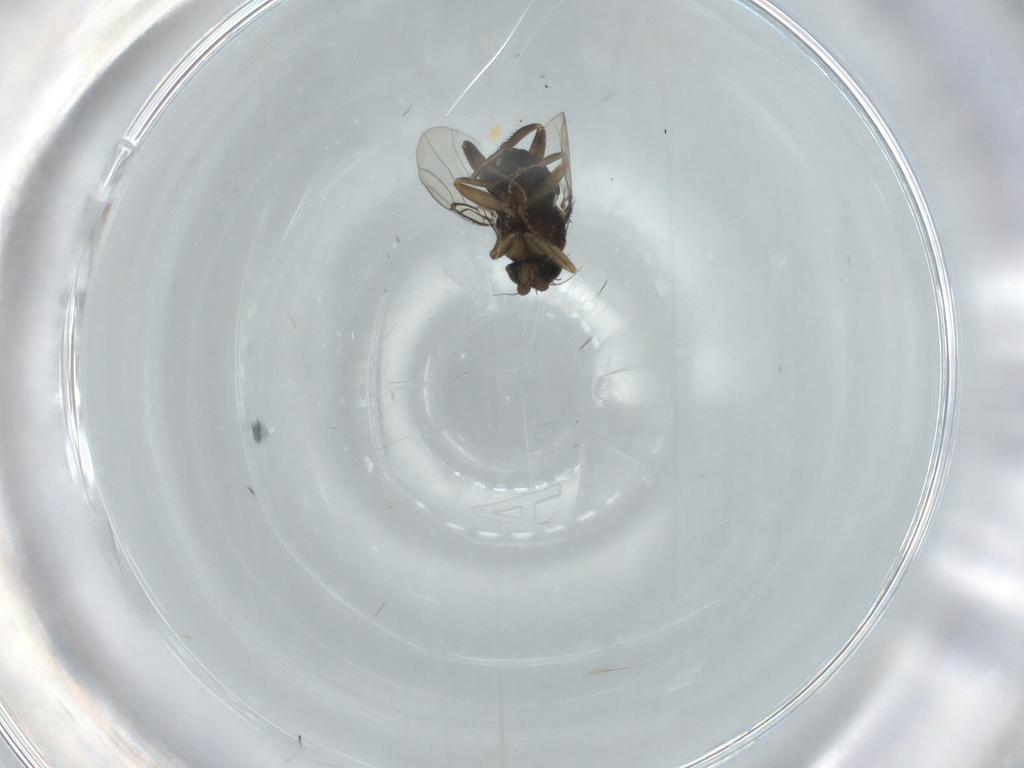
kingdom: Animalia
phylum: Arthropoda
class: Insecta
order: Diptera
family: Phoridae
